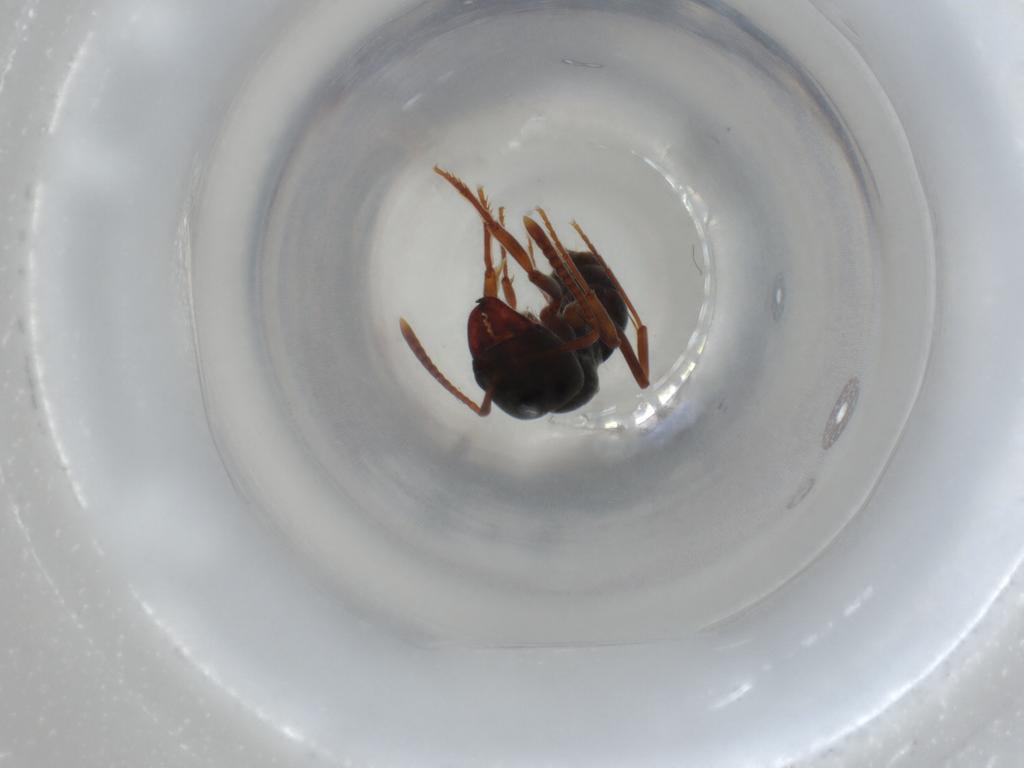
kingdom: Animalia
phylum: Arthropoda
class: Insecta
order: Hymenoptera
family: Formicidae
